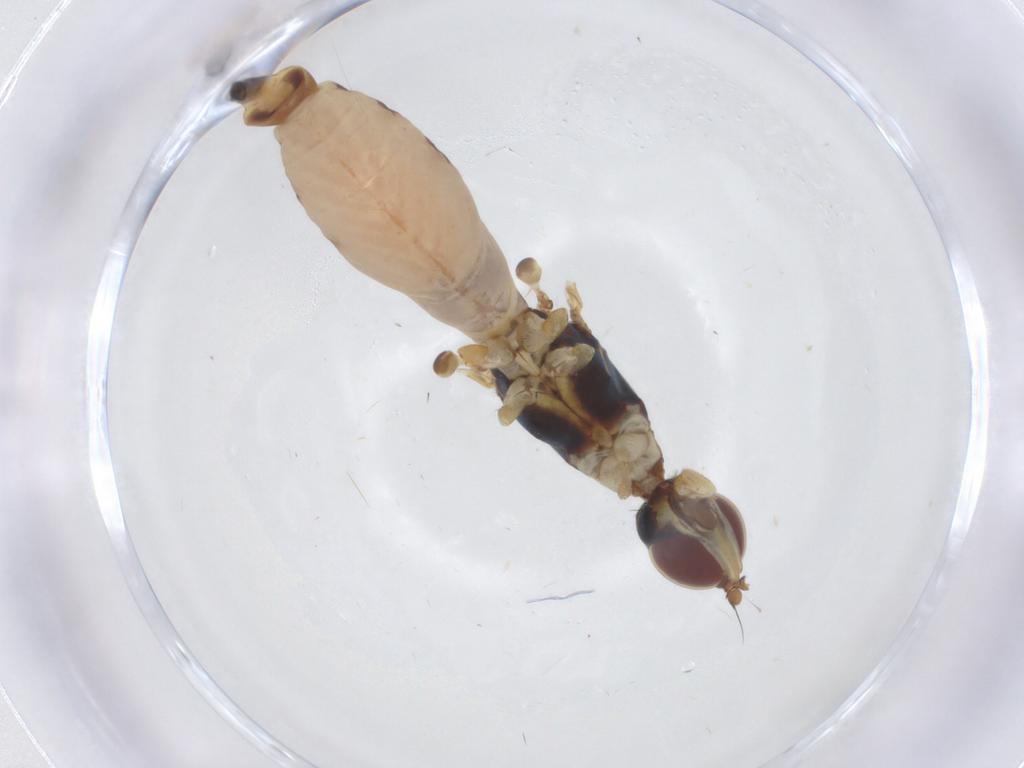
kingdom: Animalia
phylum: Arthropoda
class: Insecta
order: Diptera
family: Micropezidae
